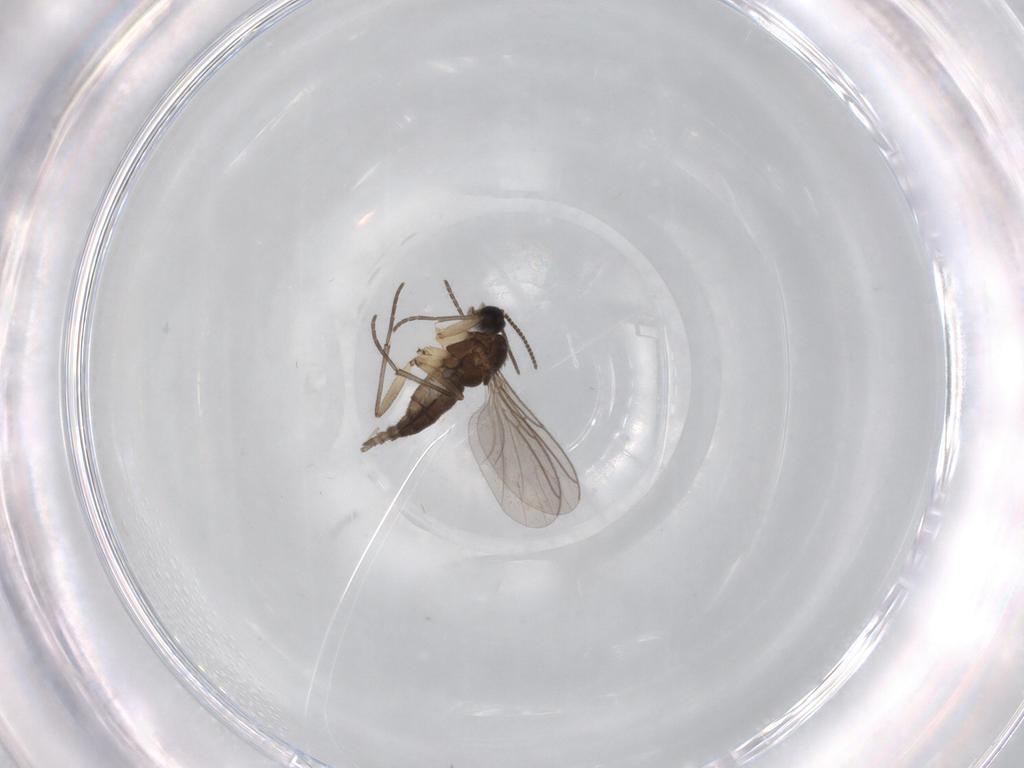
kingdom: Animalia
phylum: Arthropoda
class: Insecta
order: Diptera
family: Sciaridae
